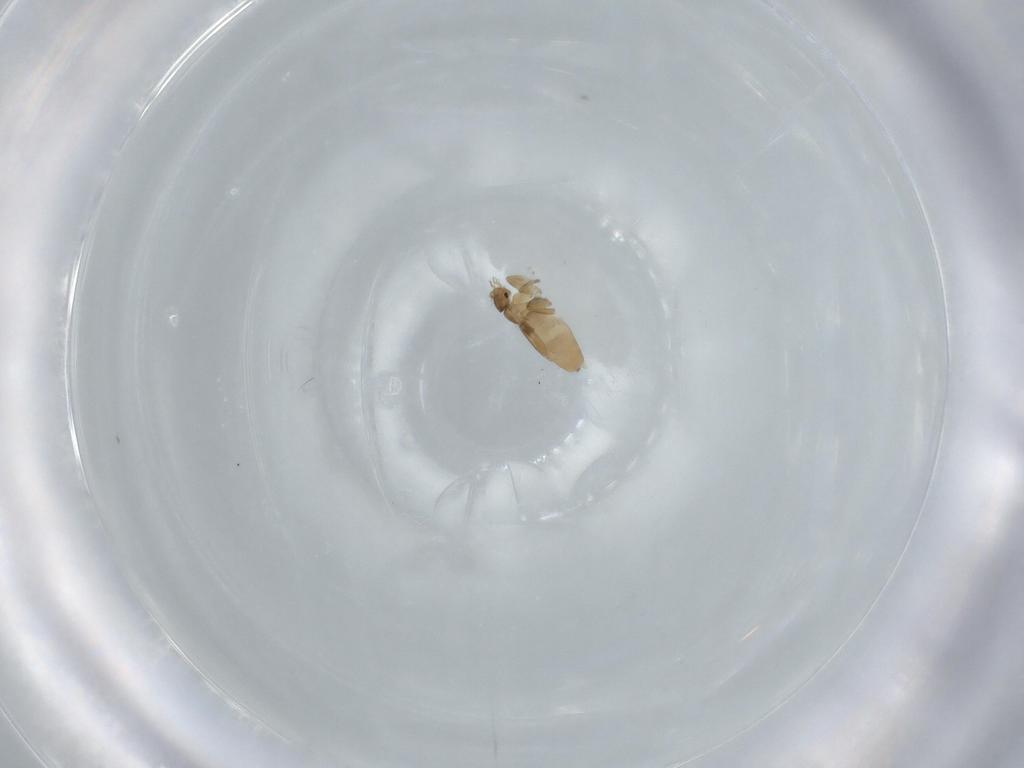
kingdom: Animalia
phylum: Arthropoda
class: Insecta
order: Diptera
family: Phoridae
